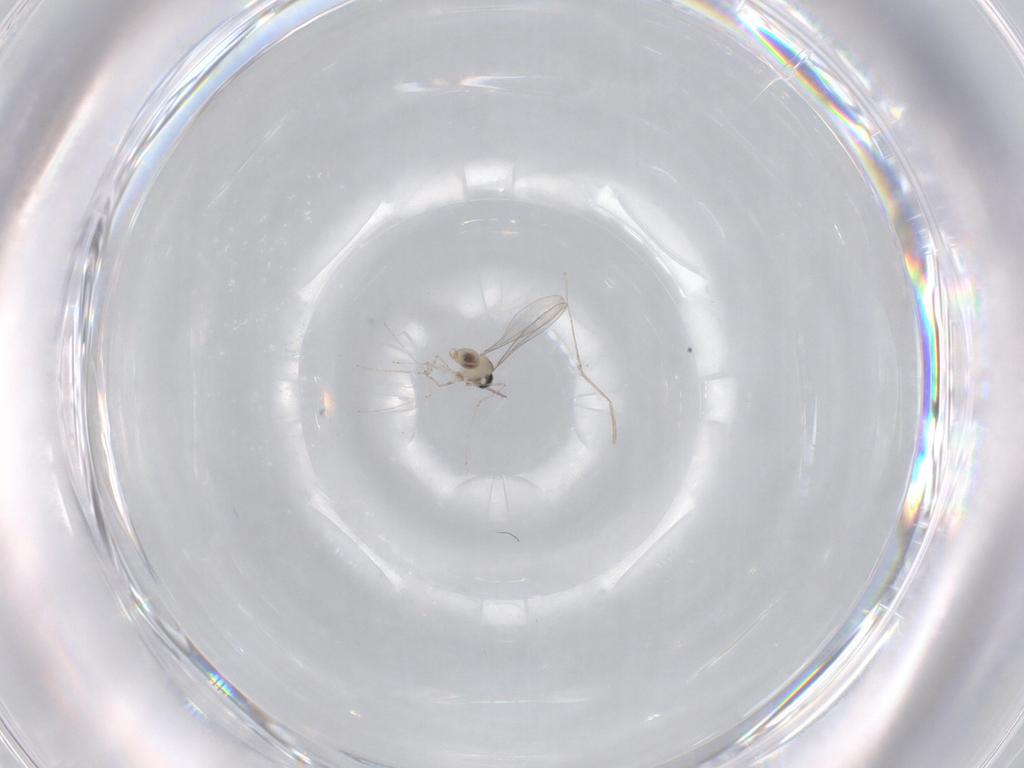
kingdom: Animalia
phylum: Arthropoda
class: Insecta
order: Diptera
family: Cecidomyiidae
